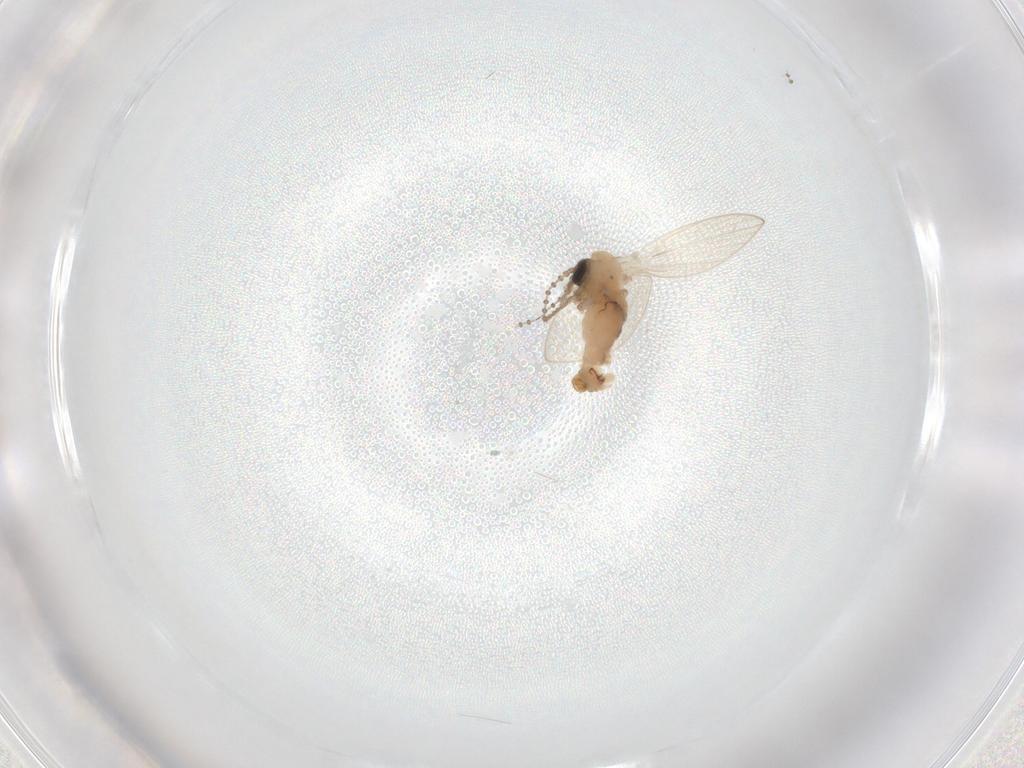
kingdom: Animalia
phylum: Arthropoda
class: Insecta
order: Diptera
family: Psychodidae
